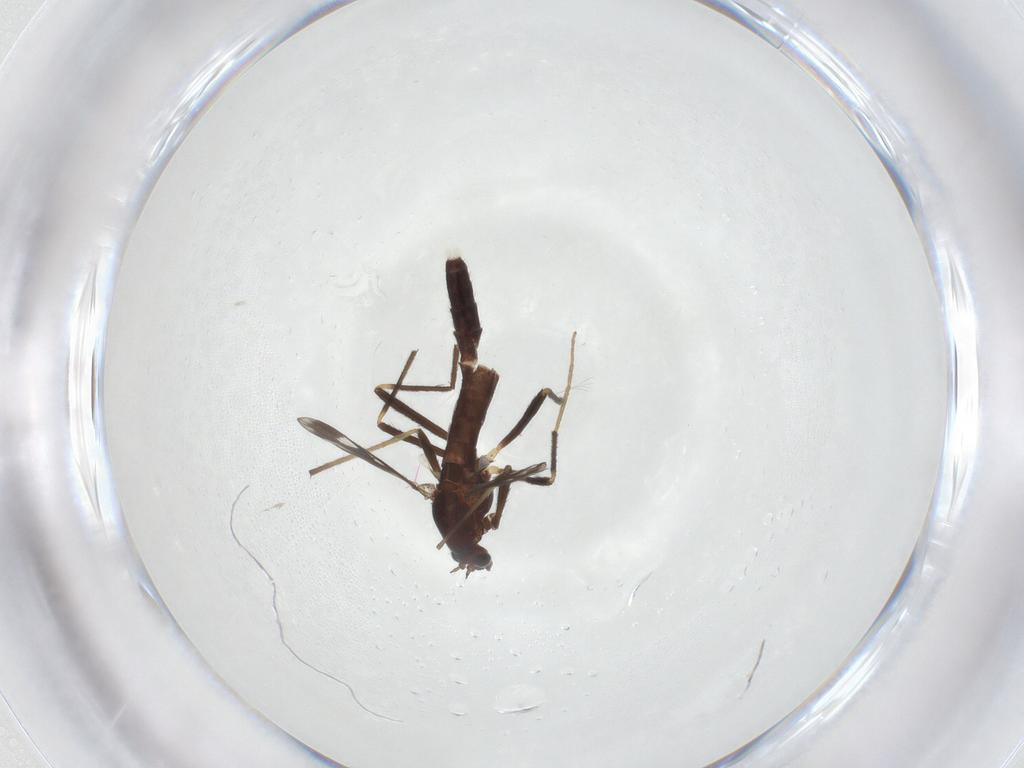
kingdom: Animalia
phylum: Arthropoda
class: Insecta
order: Diptera
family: Chironomidae
